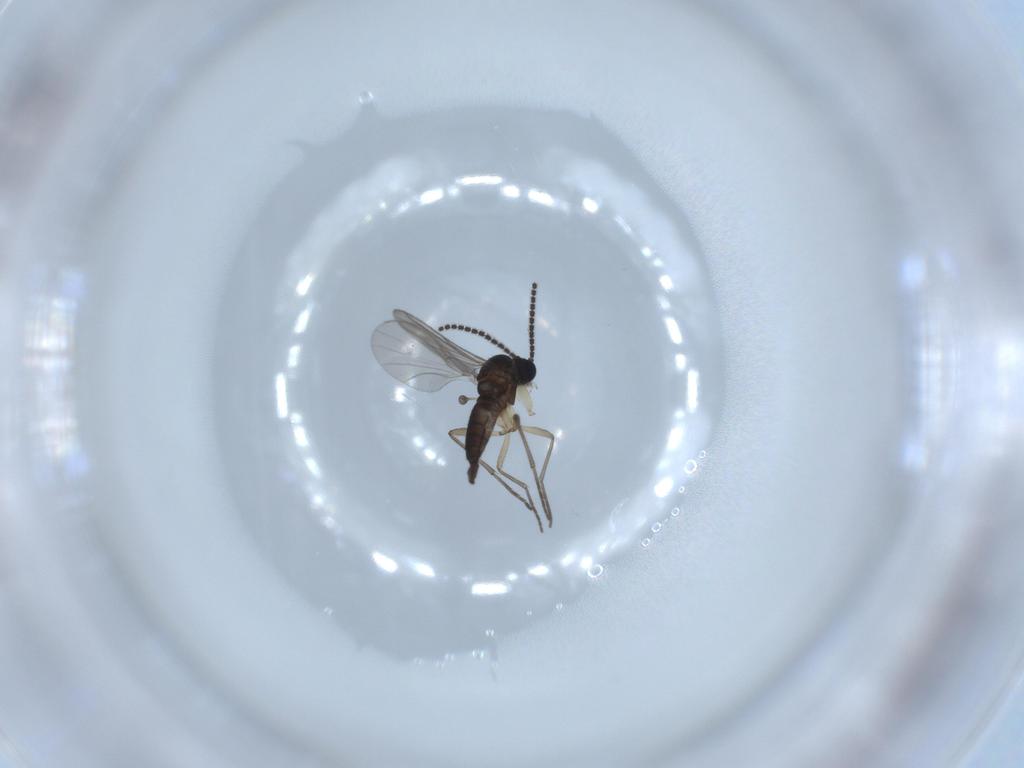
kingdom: Animalia
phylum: Arthropoda
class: Insecta
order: Diptera
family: Sciaridae
